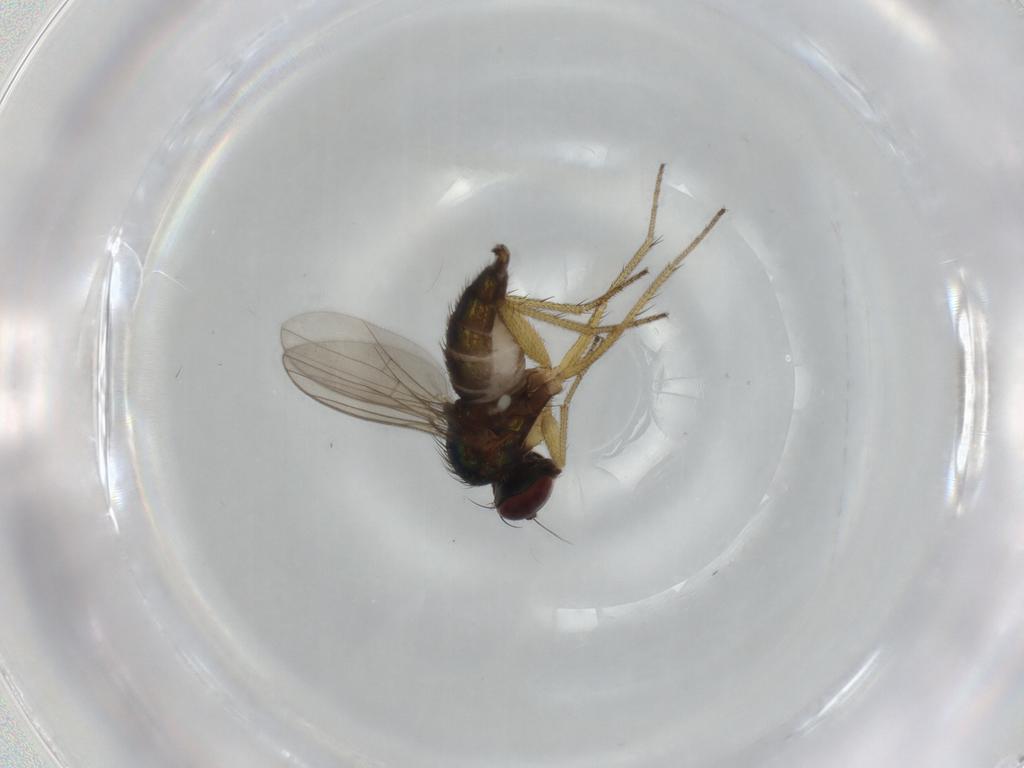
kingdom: Animalia
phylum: Arthropoda
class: Insecta
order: Diptera
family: Micropezidae
